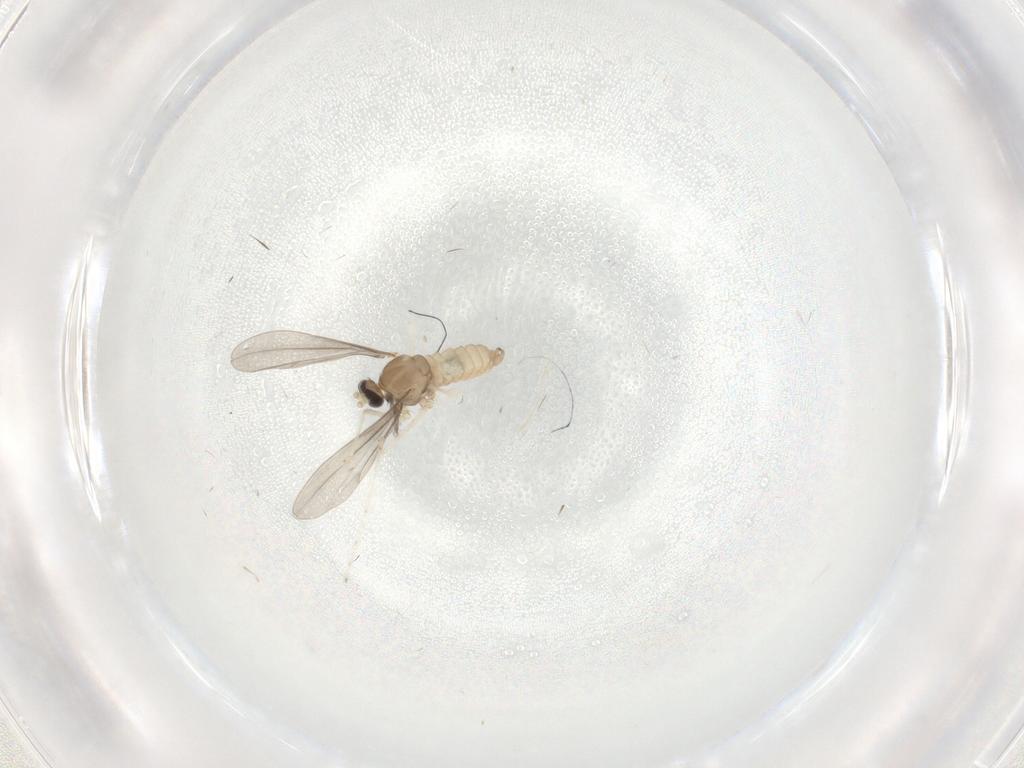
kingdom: Animalia
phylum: Arthropoda
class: Insecta
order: Diptera
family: Cecidomyiidae
